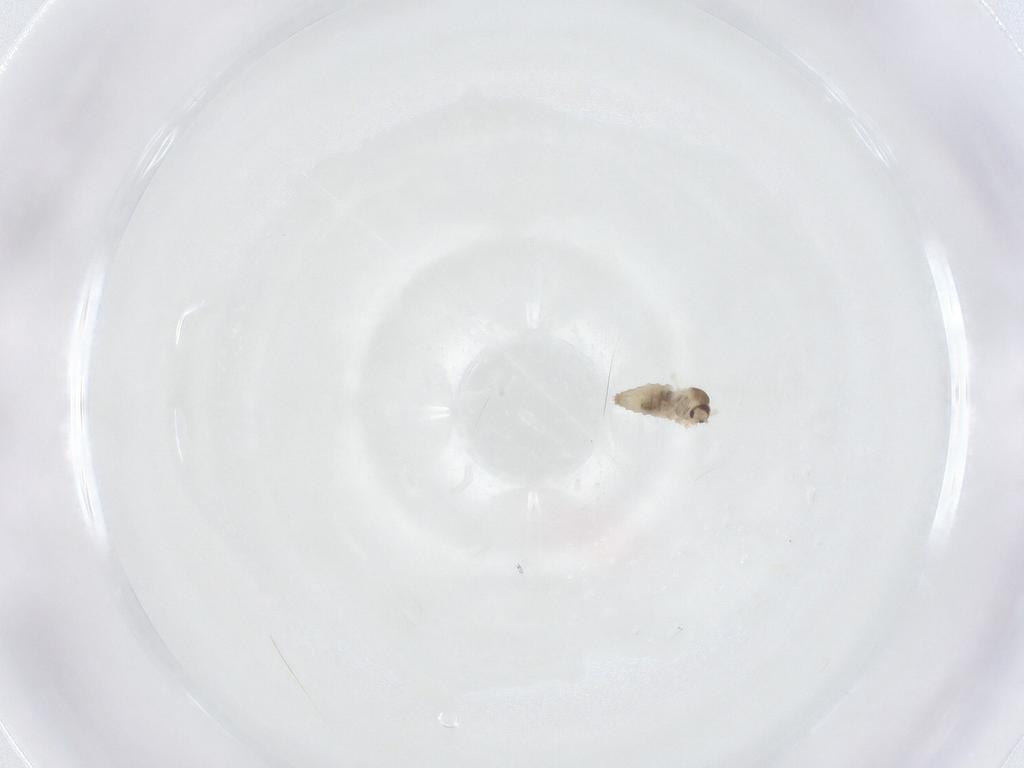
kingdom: Animalia
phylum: Arthropoda
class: Insecta
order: Diptera
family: Cecidomyiidae
